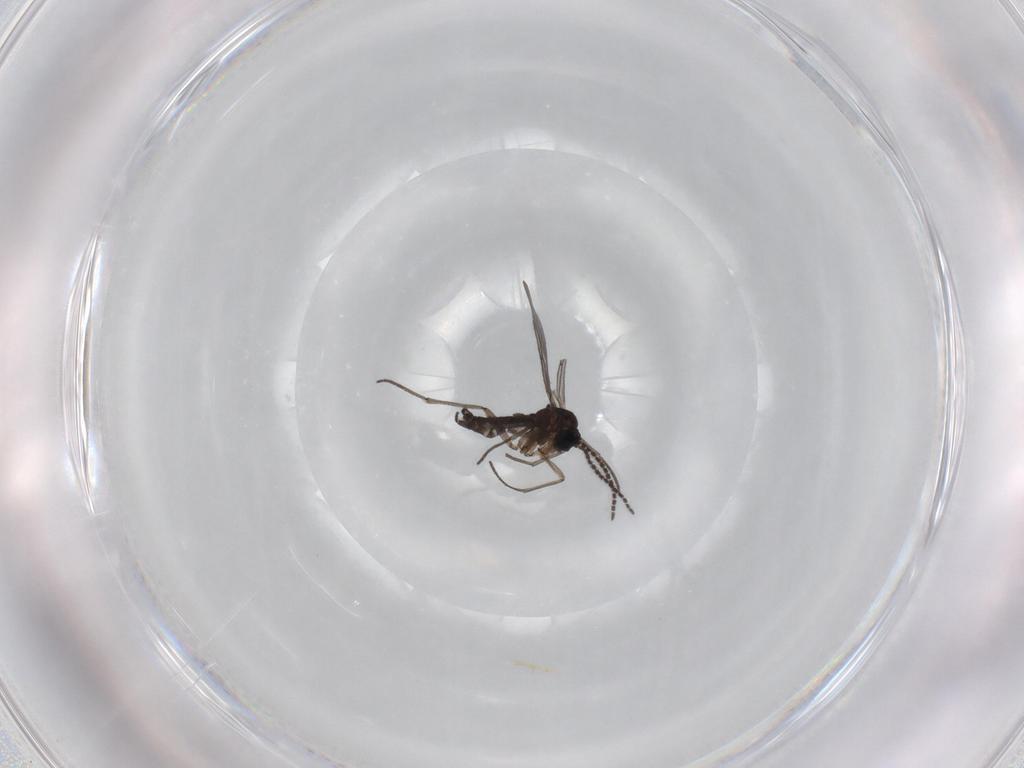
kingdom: Animalia
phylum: Arthropoda
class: Insecta
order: Diptera
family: Sciaridae
